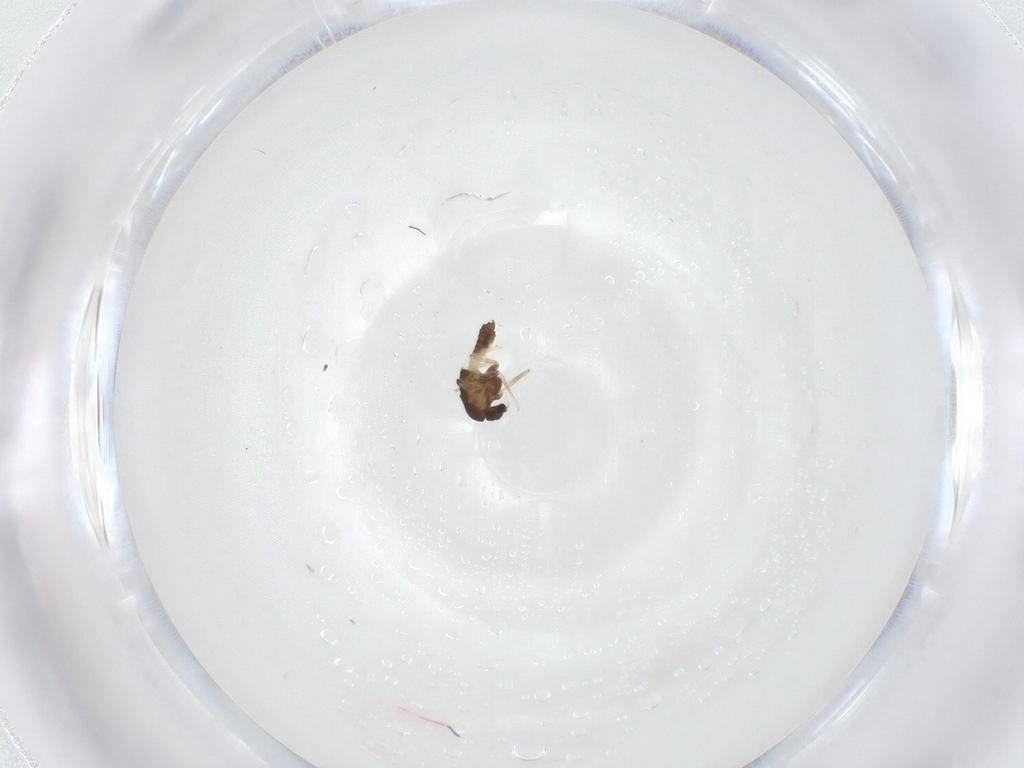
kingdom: Animalia
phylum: Arthropoda
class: Insecta
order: Diptera
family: Chironomidae
